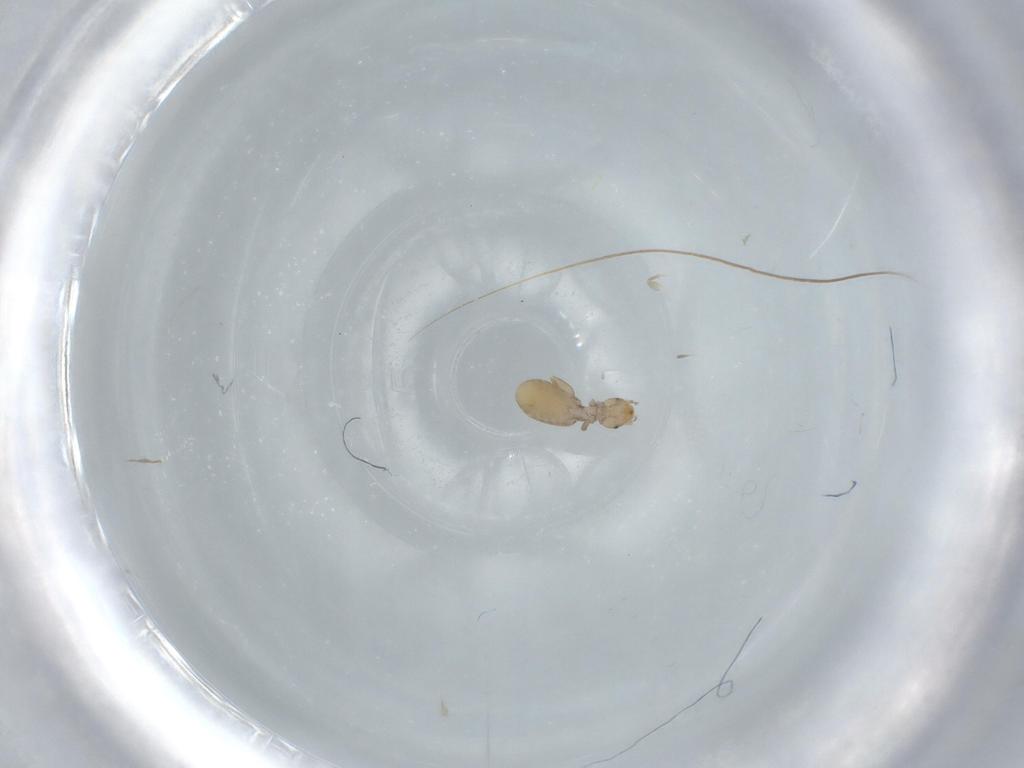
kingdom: Animalia
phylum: Arthropoda
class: Insecta
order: Psocodea
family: Liposcelididae
